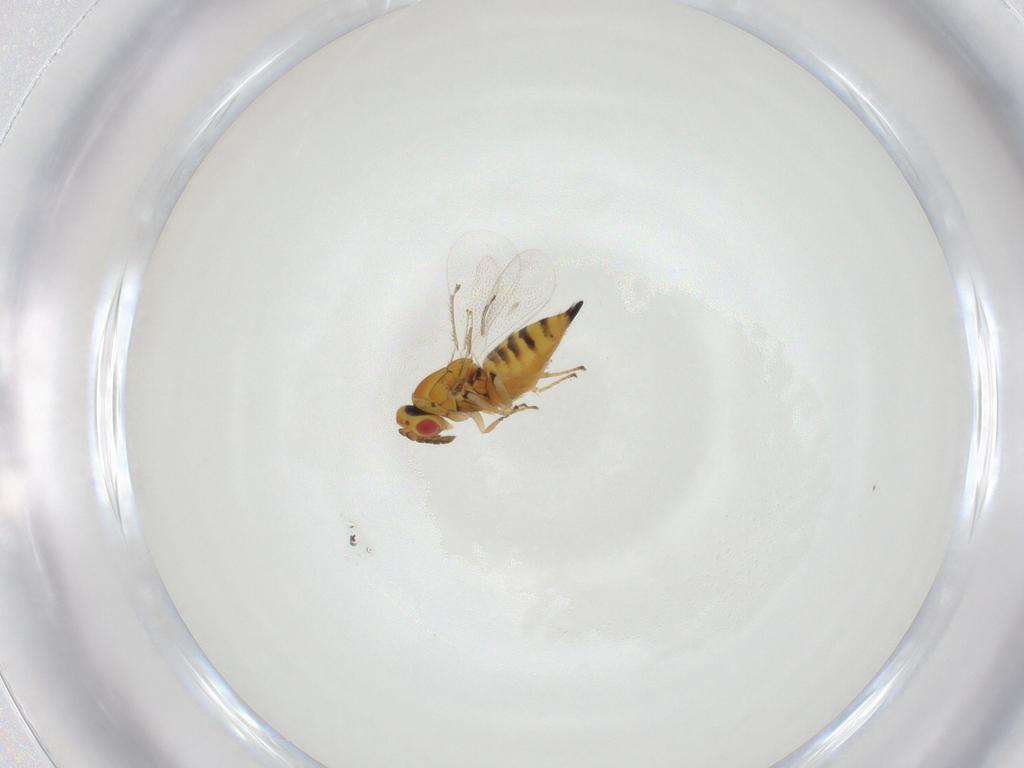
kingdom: Animalia
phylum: Arthropoda
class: Insecta
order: Hymenoptera
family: Eulophidae
